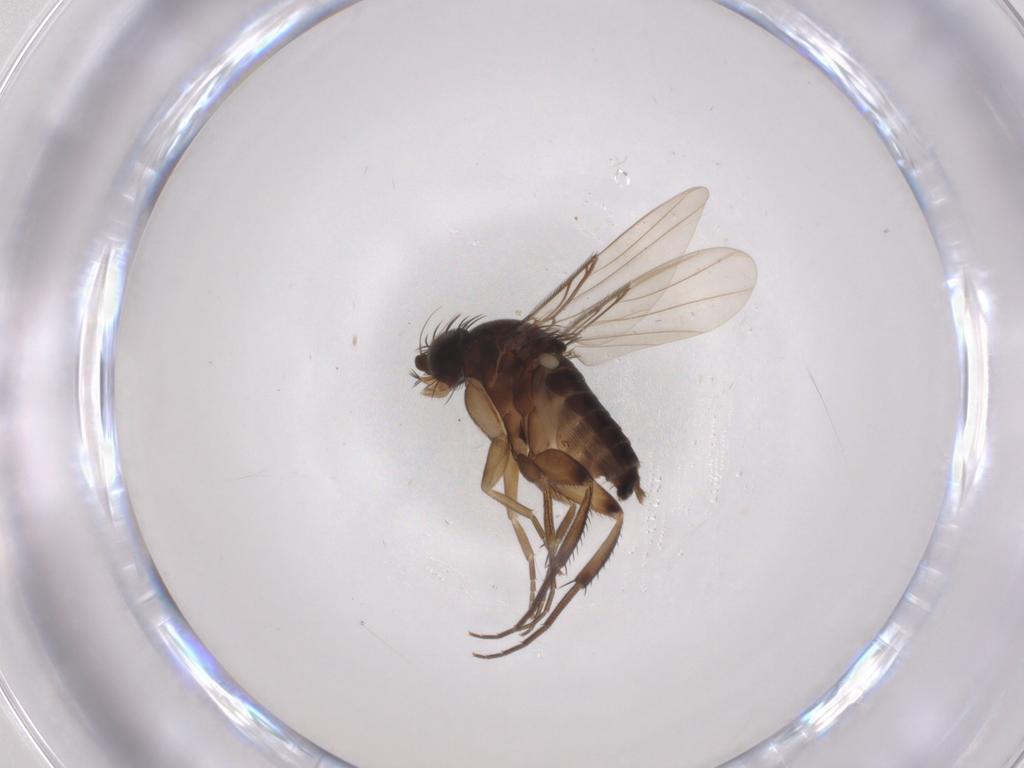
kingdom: Animalia
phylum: Arthropoda
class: Insecta
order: Diptera
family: Phoridae
